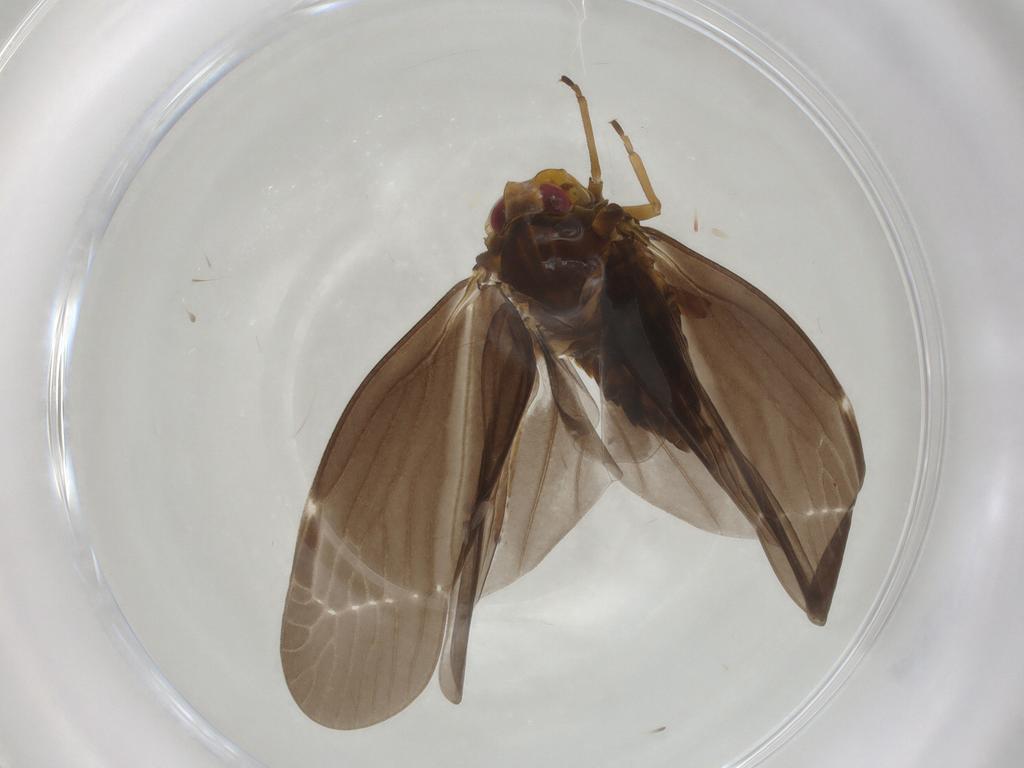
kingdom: Animalia
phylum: Arthropoda
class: Insecta
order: Hemiptera
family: Derbidae
